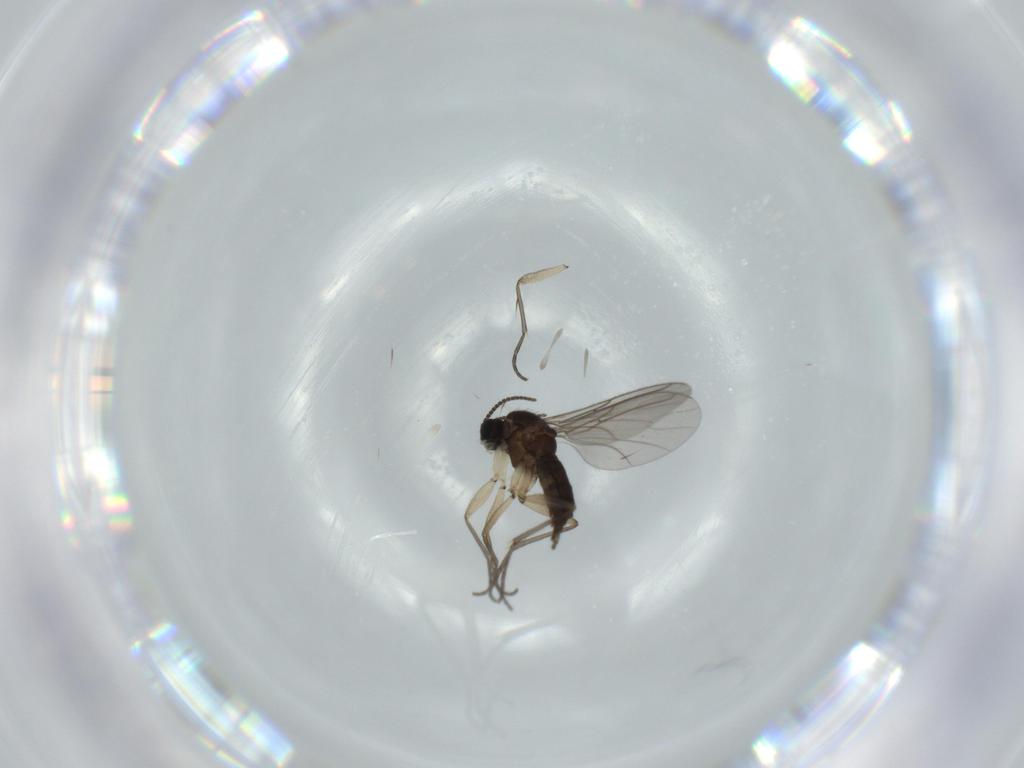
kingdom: Animalia
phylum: Arthropoda
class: Insecta
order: Diptera
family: Sciaridae
